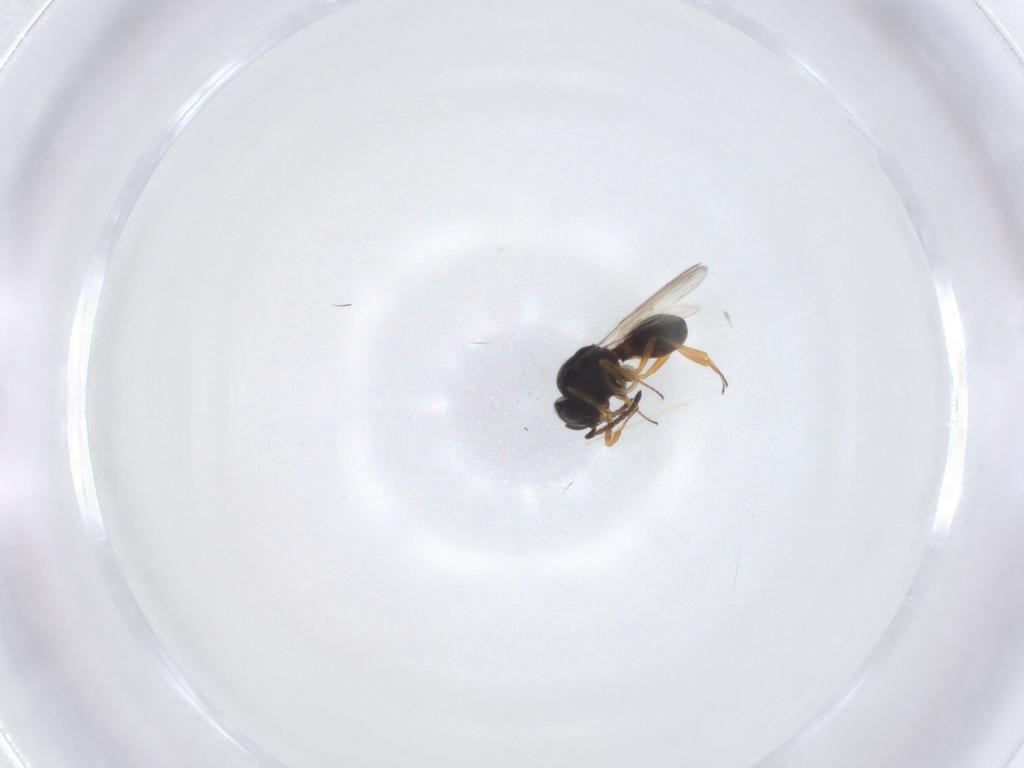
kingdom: Animalia
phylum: Arthropoda
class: Insecta
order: Hymenoptera
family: Scelionidae
